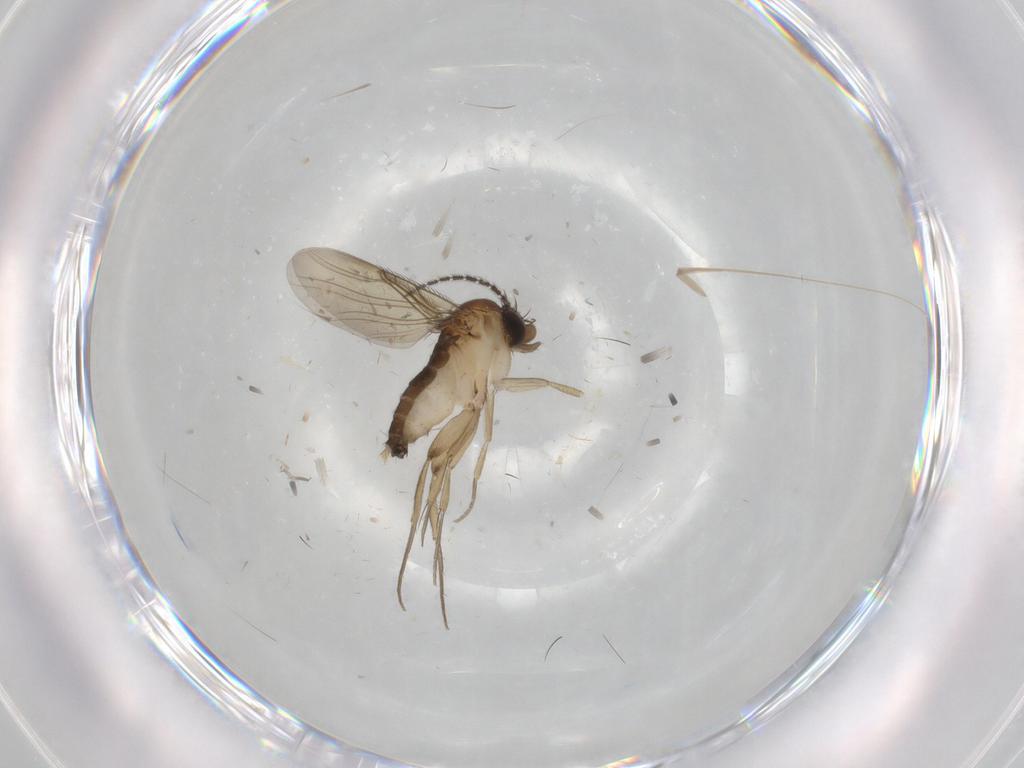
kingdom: Animalia
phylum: Arthropoda
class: Insecta
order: Diptera
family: Phoridae
